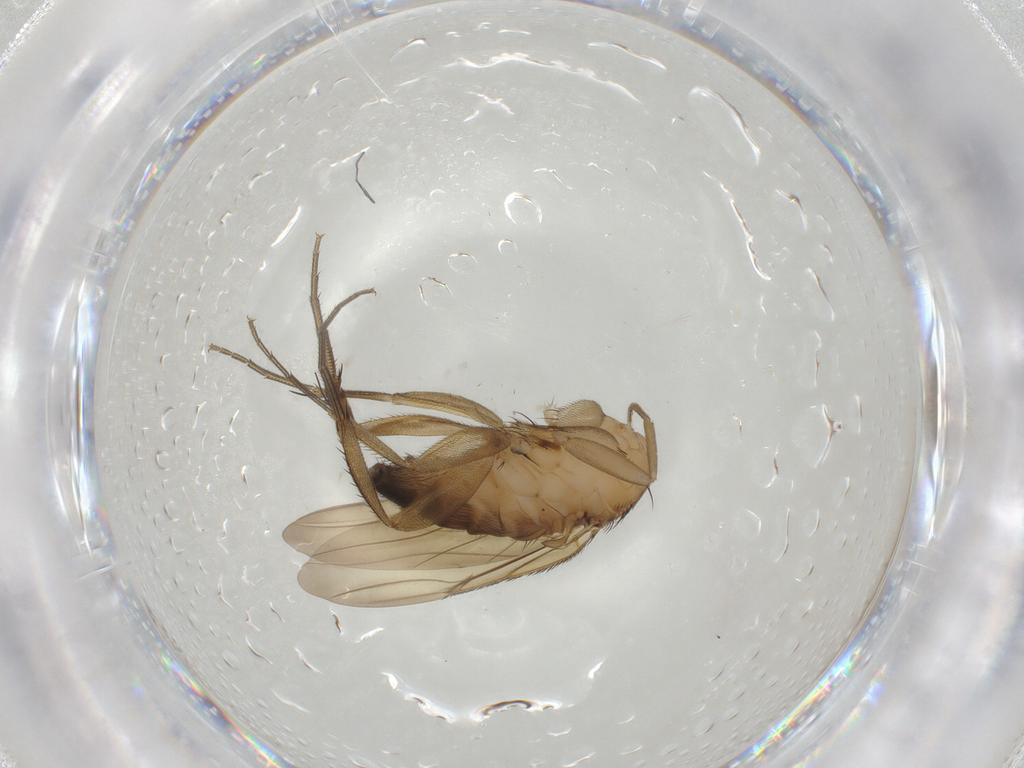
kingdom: Animalia
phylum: Arthropoda
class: Insecta
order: Diptera
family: Phoridae
